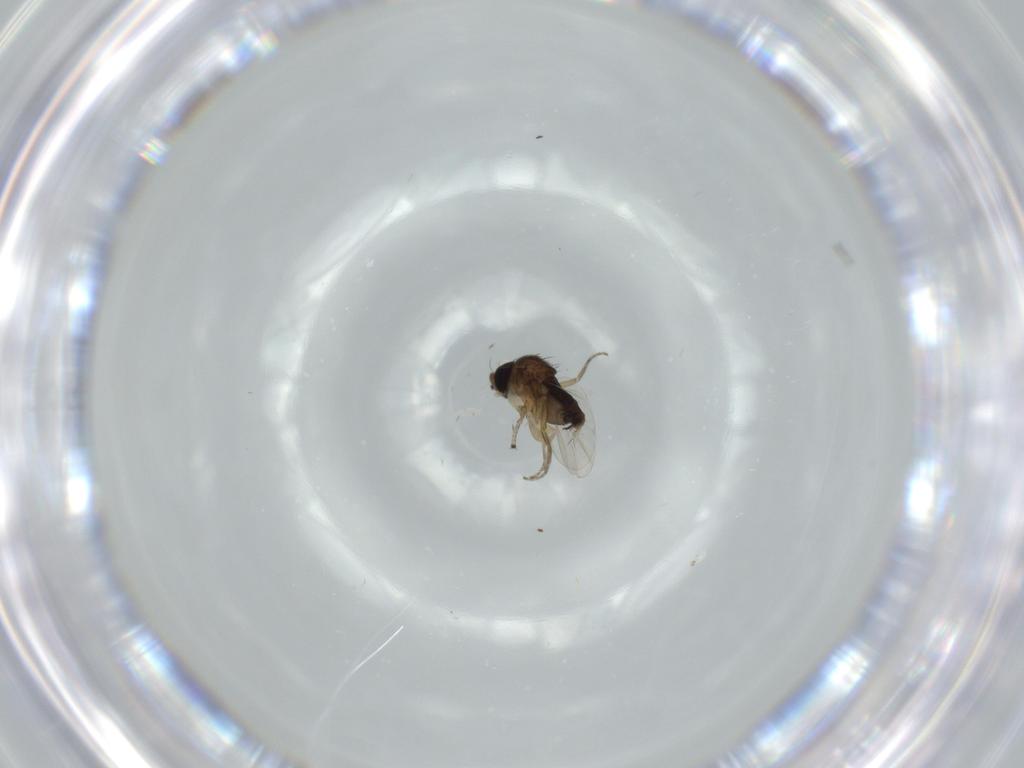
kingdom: Animalia
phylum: Arthropoda
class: Insecta
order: Diptera
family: Phoridae
